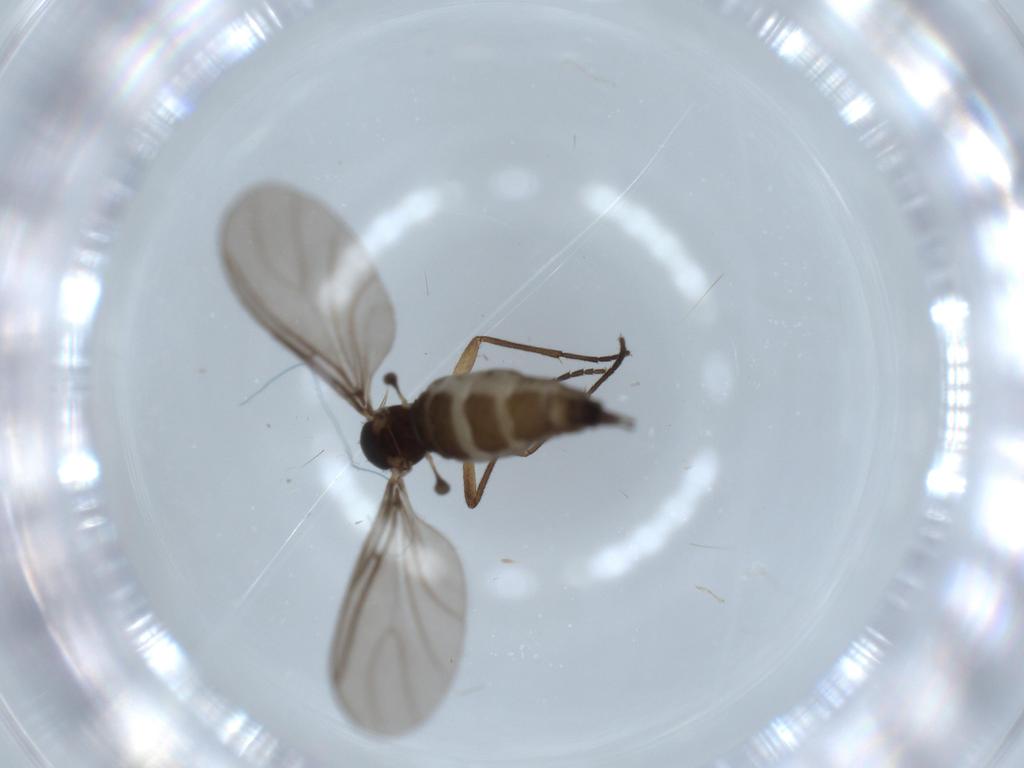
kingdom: Animalia
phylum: Arthropoda
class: Insecta
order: Diptera
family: Sciaridae
